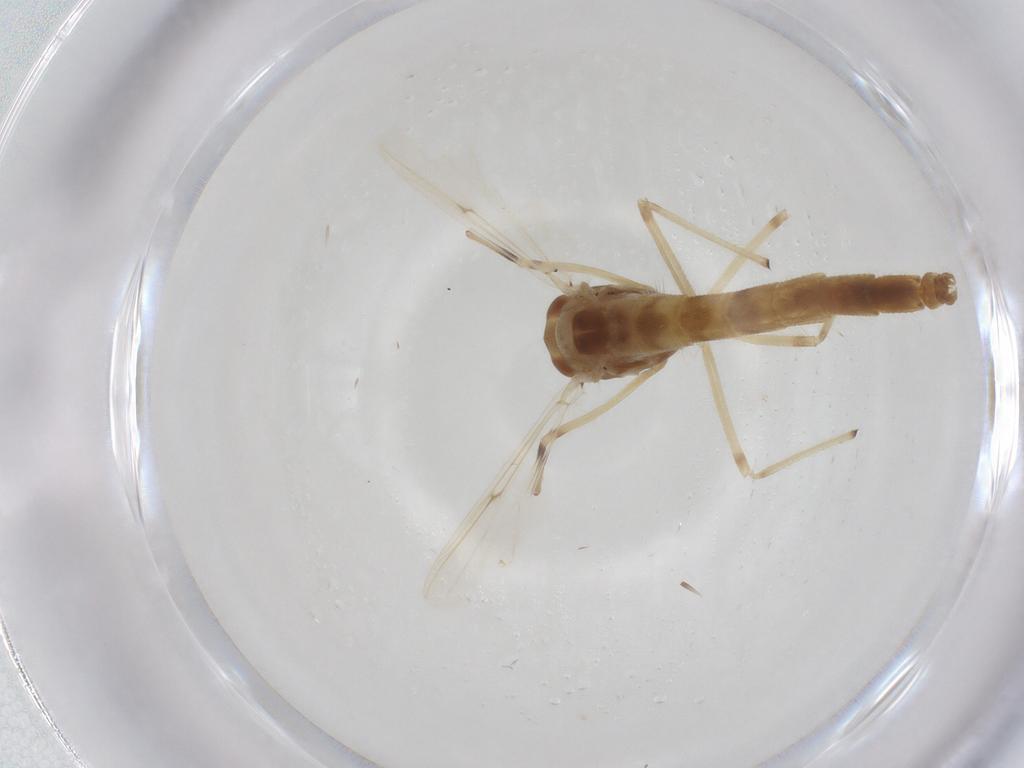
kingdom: Animalia
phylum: Arthropoda
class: Insecta
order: Diptera
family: Chironomidae
